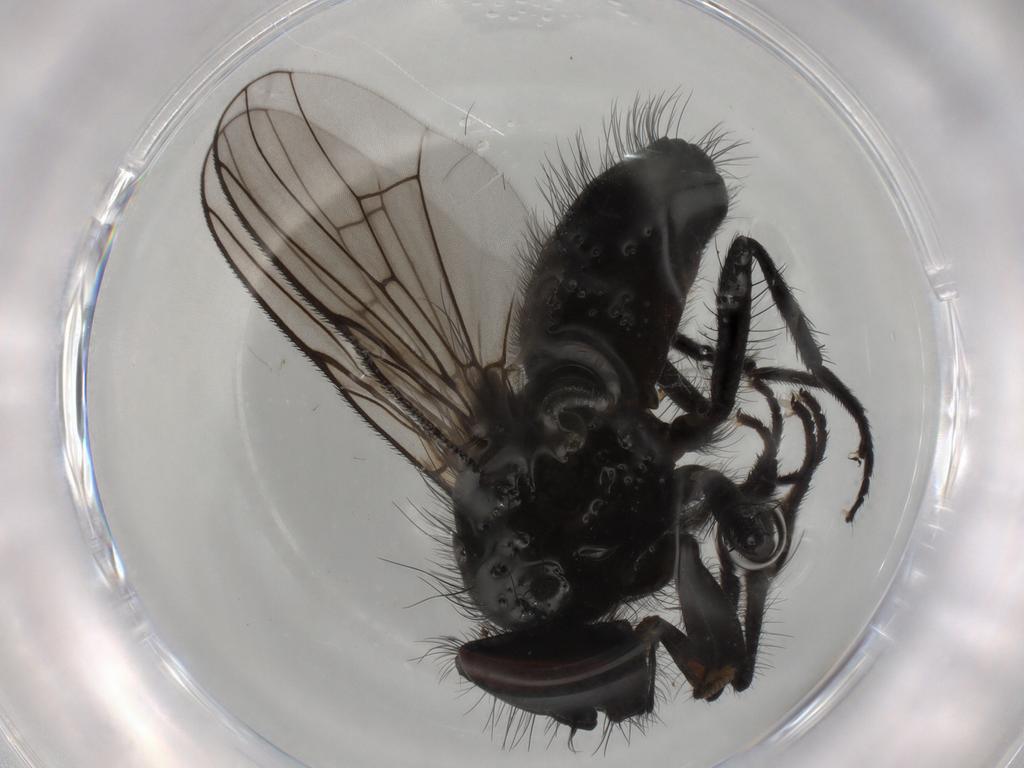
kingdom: Animalia
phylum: Arthropoda
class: Insecta
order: Diptera
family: Muscidae
